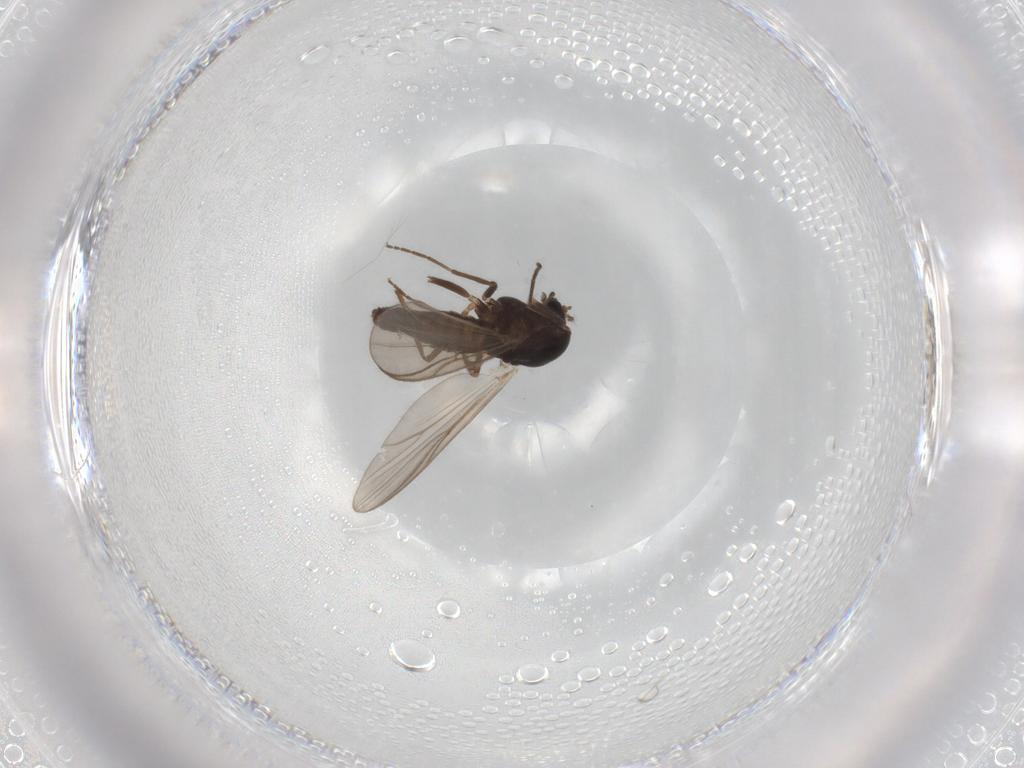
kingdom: Animalia
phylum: Arthropoda
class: Insecta
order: Diptera
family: Chironomidae
